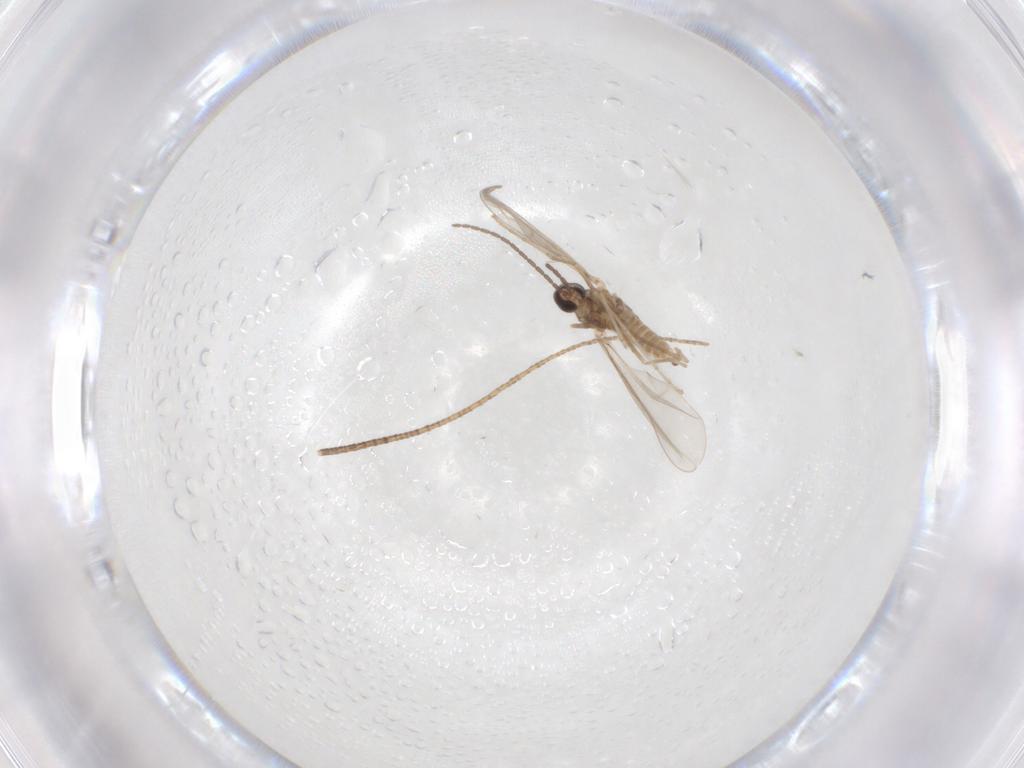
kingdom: Animalia
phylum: Arthropoda
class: Insecta
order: Diptera
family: Cecidomyiidae
